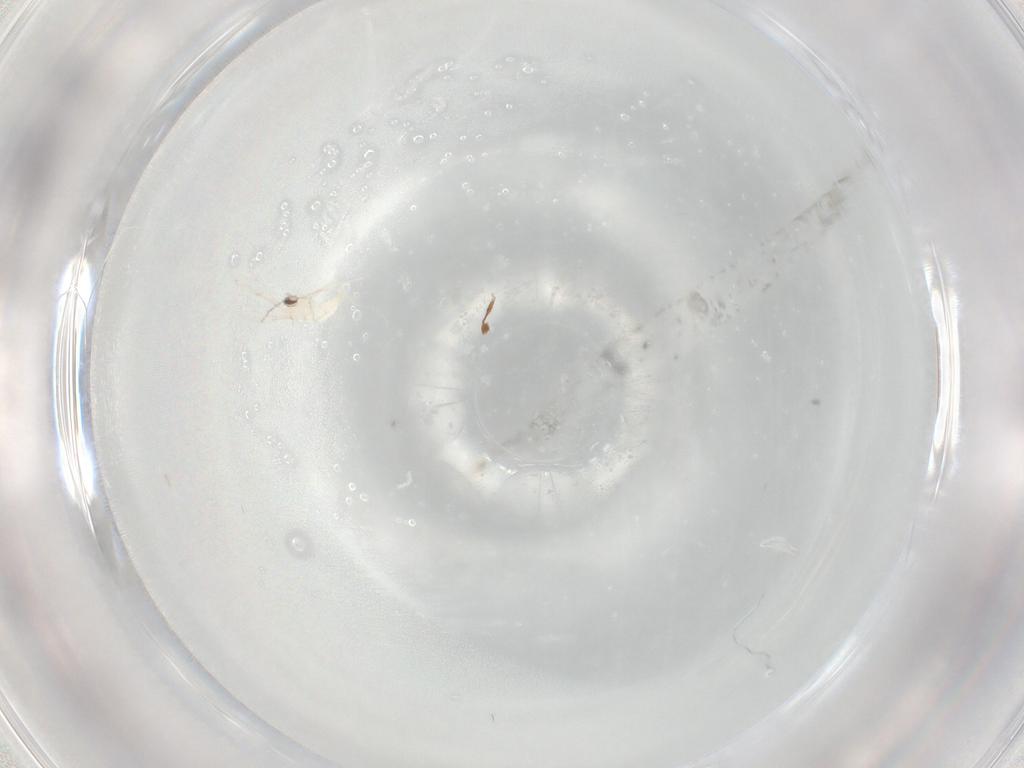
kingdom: Animalia
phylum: Arthropoda
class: Insecta
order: Diptera
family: Cecidomyiidae
